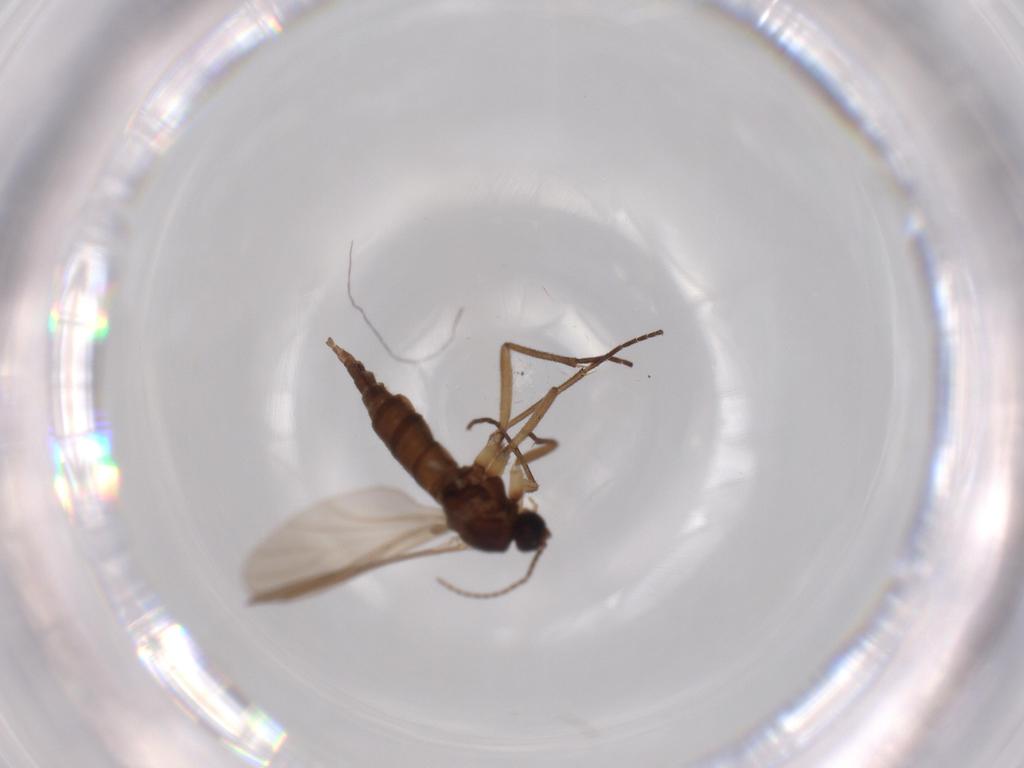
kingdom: Animalia
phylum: Arthropoda
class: Insecta
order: Diptera
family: Sciaridae
